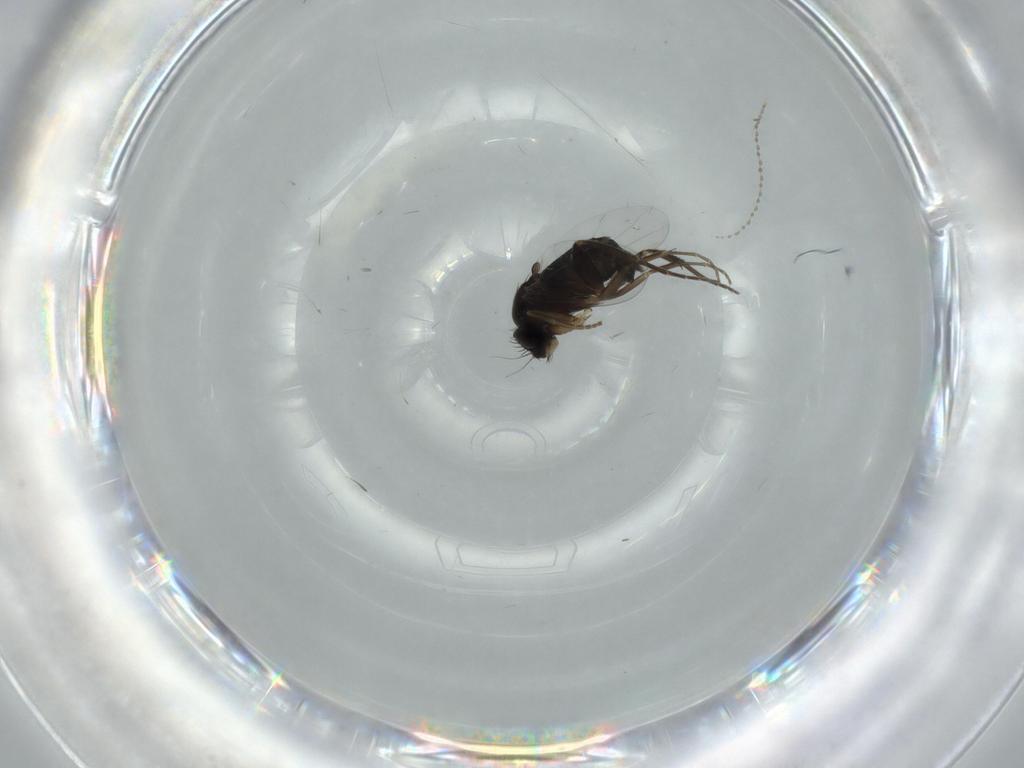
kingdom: Animalia
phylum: Arthropoda
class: Insecta
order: Diptera
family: Phoridae
